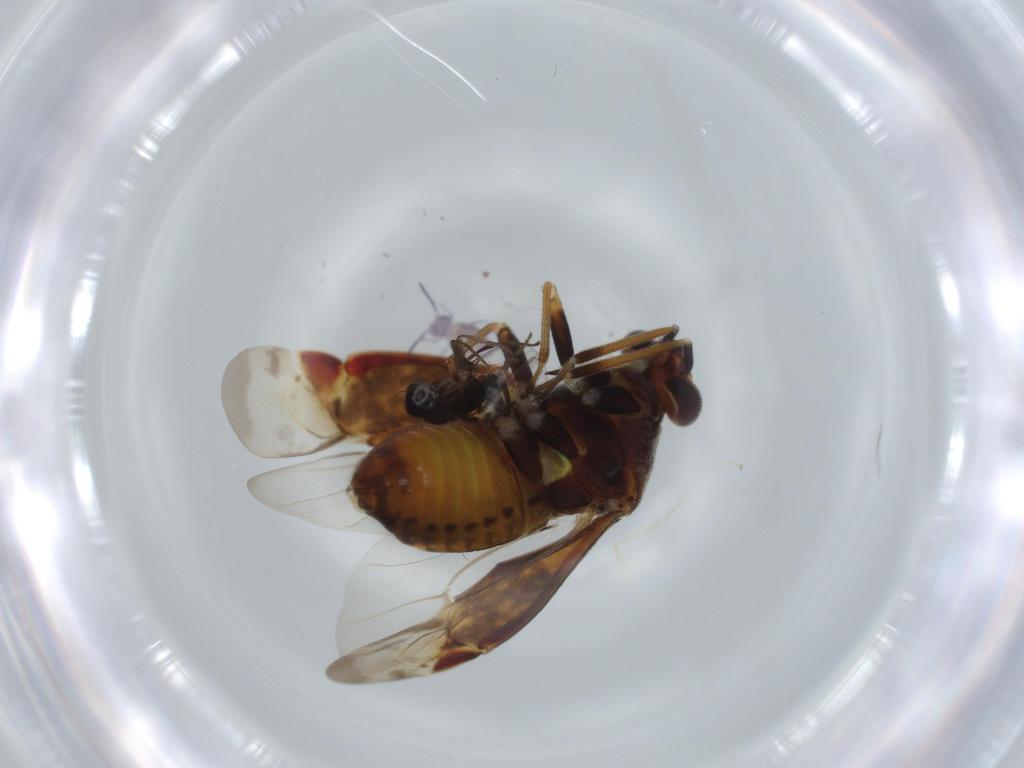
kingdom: Animalia
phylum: Arthropoda
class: Insecta
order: Hemiptera
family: Miridae
